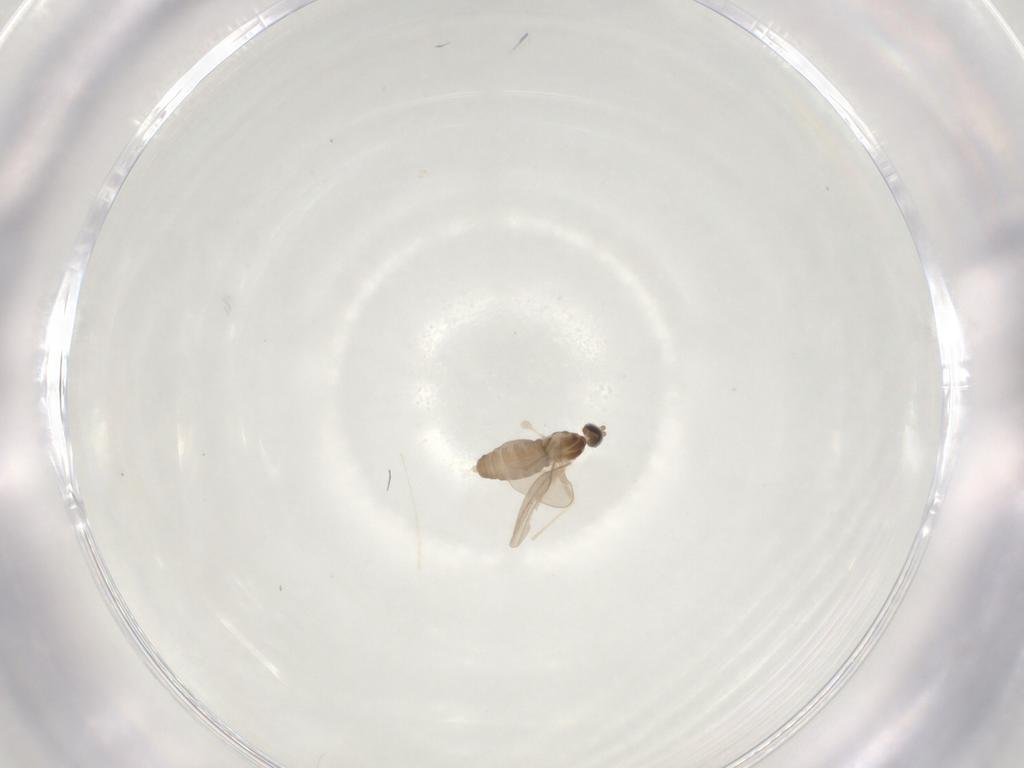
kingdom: Animalia
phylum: Arthropoda
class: Insecta
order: Diptera
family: Cecidomyiidae
